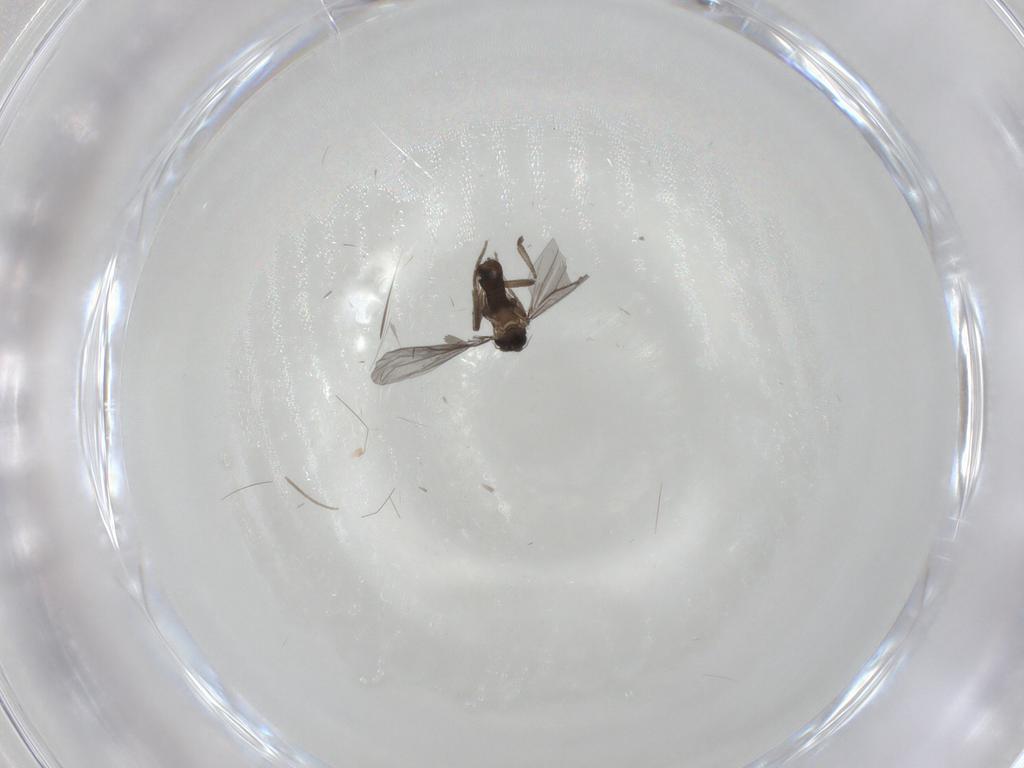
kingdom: Animalia
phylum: Arthropoda
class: Insecta
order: Diptera
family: Chironomidae
